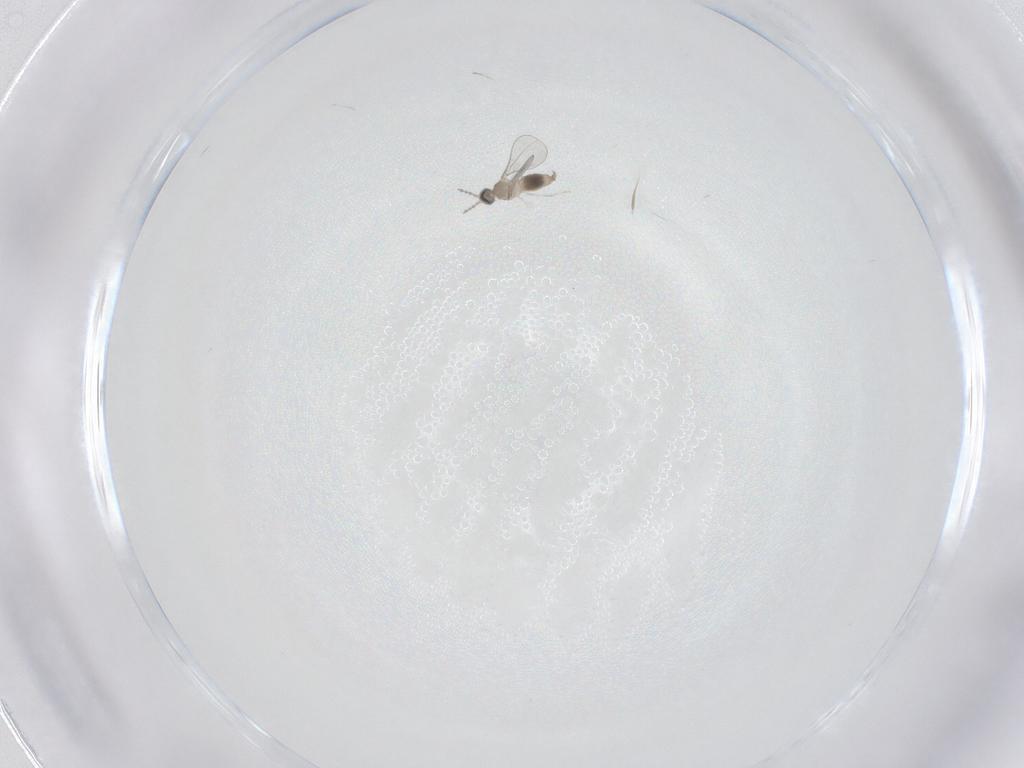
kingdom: Animalia
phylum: Arthropoda
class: Insecta
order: Diptera
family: Cecidomyiidae
